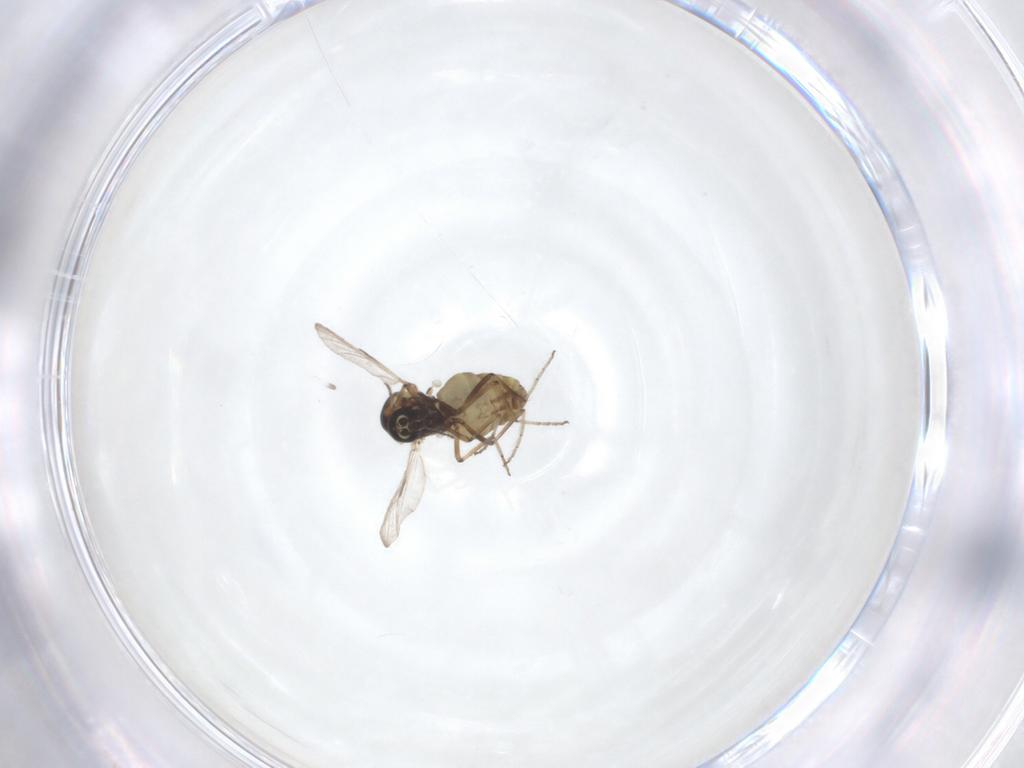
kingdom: Animalia
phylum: Arthropoda
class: Insecta
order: Diptera
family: Ceratopogonidae
